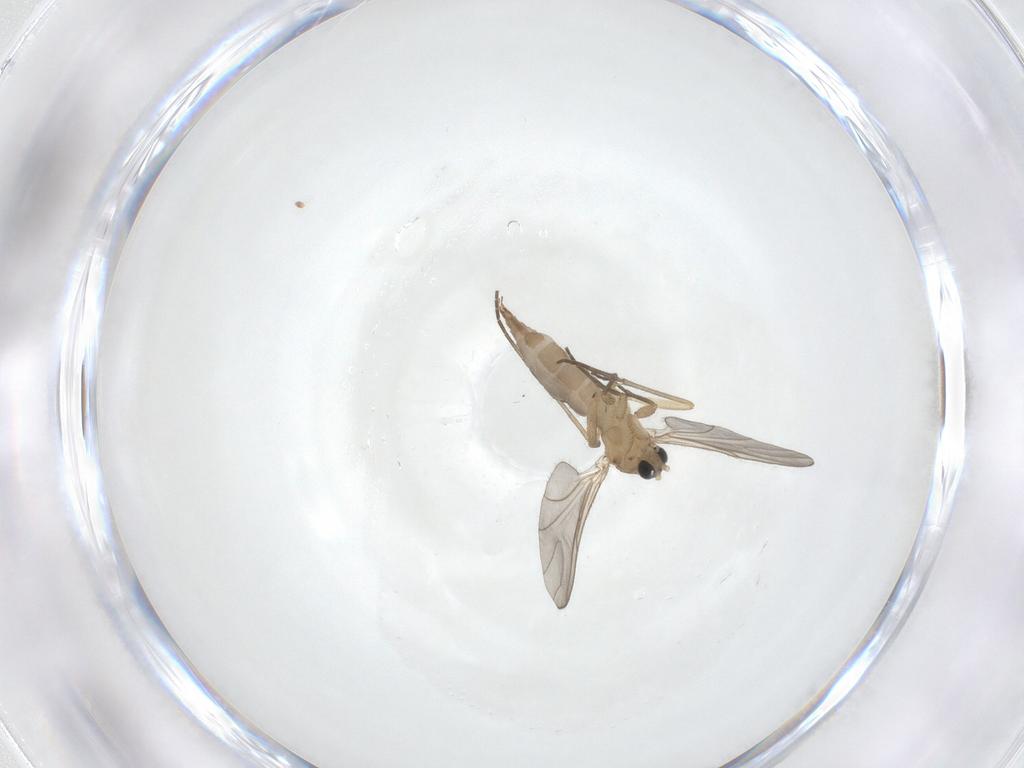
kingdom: Animalia
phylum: Arthropoda
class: Insecta
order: Diptera
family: Sciaridae
